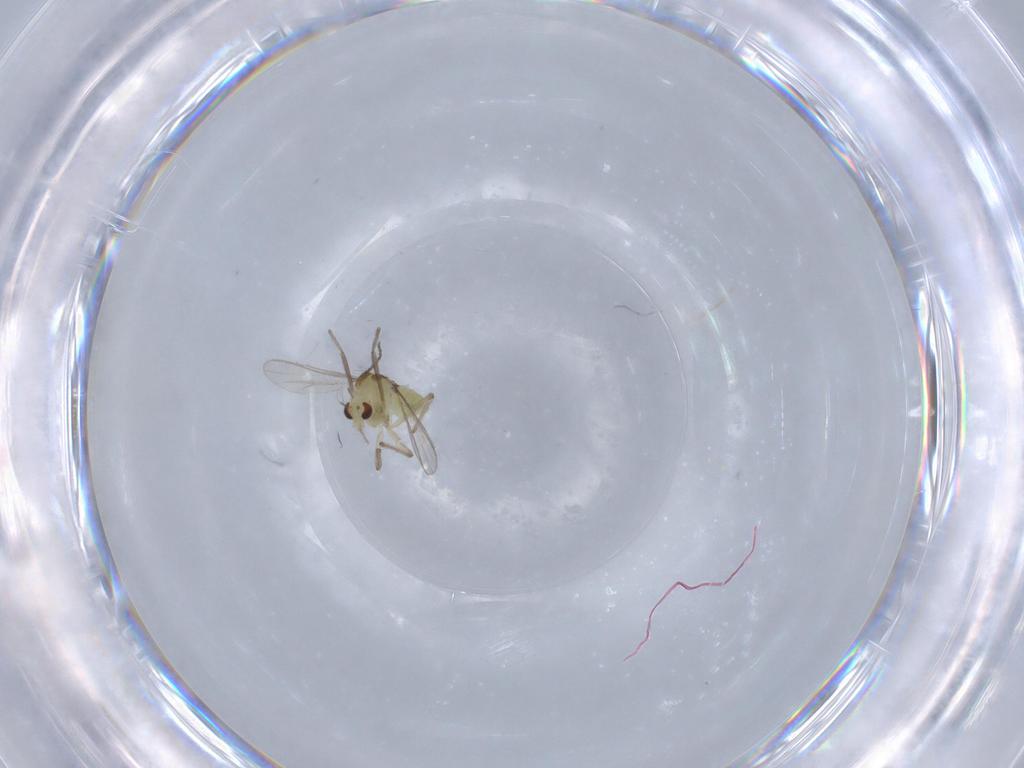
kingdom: Animalia
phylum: Arthropoda
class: Insecta
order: Diptera
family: Chironomidae
